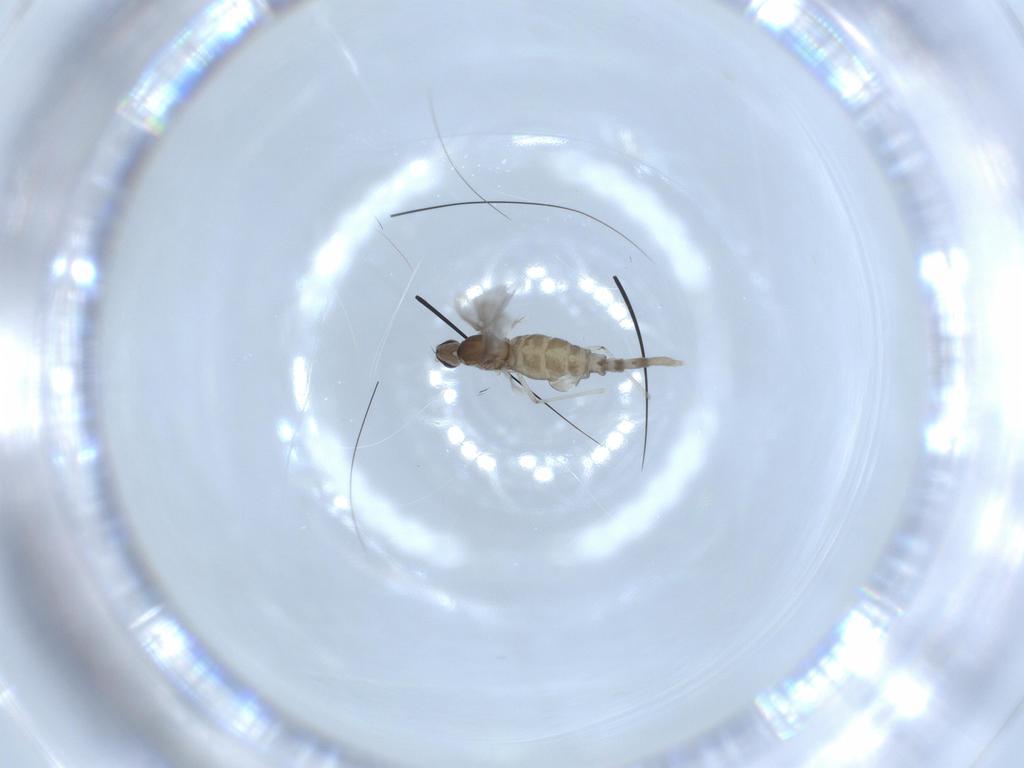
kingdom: Animalia
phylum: Arthropoda
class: Insecta
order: Diptera
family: Cecidomyiidae
